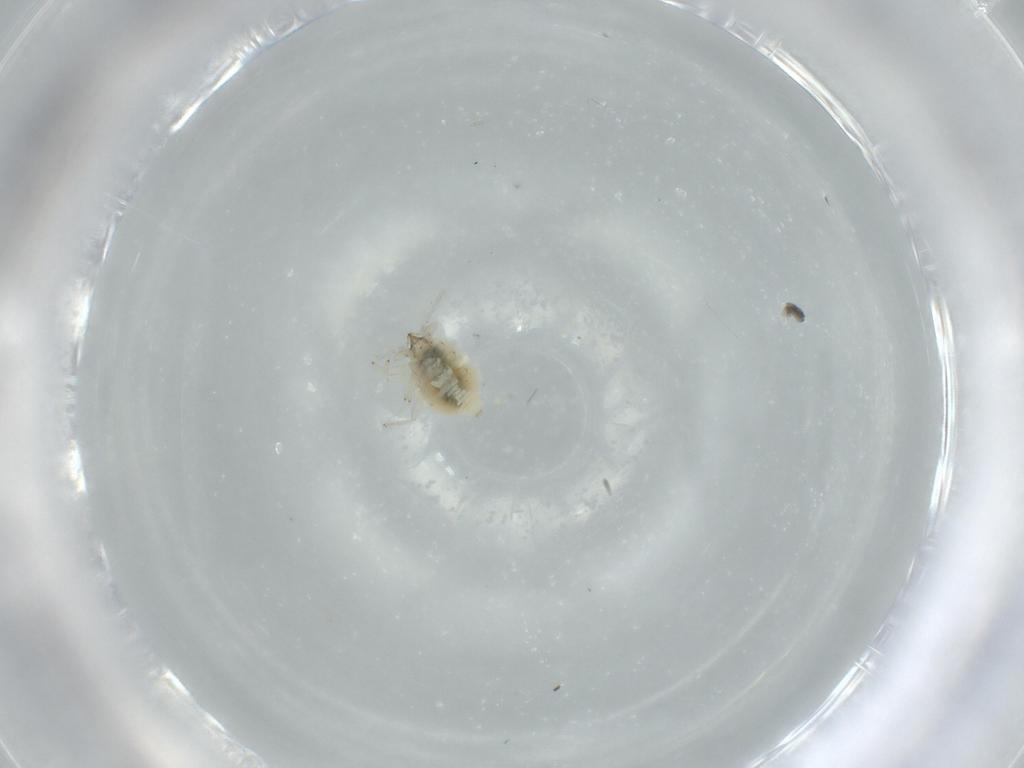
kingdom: Animalia
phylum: Arthropoda
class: Insecta
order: Neuroptera
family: Coniopterygidae
